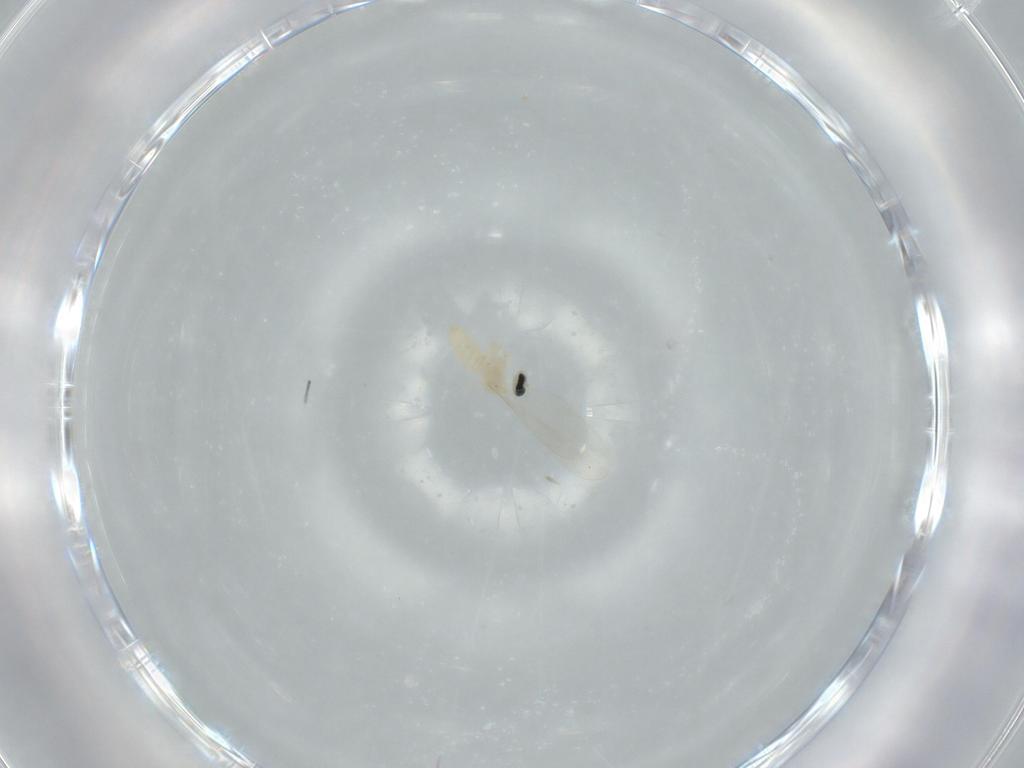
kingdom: Animalia
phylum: Arthropoda
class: Insecta
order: Diptera
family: Cecidomyiidae
